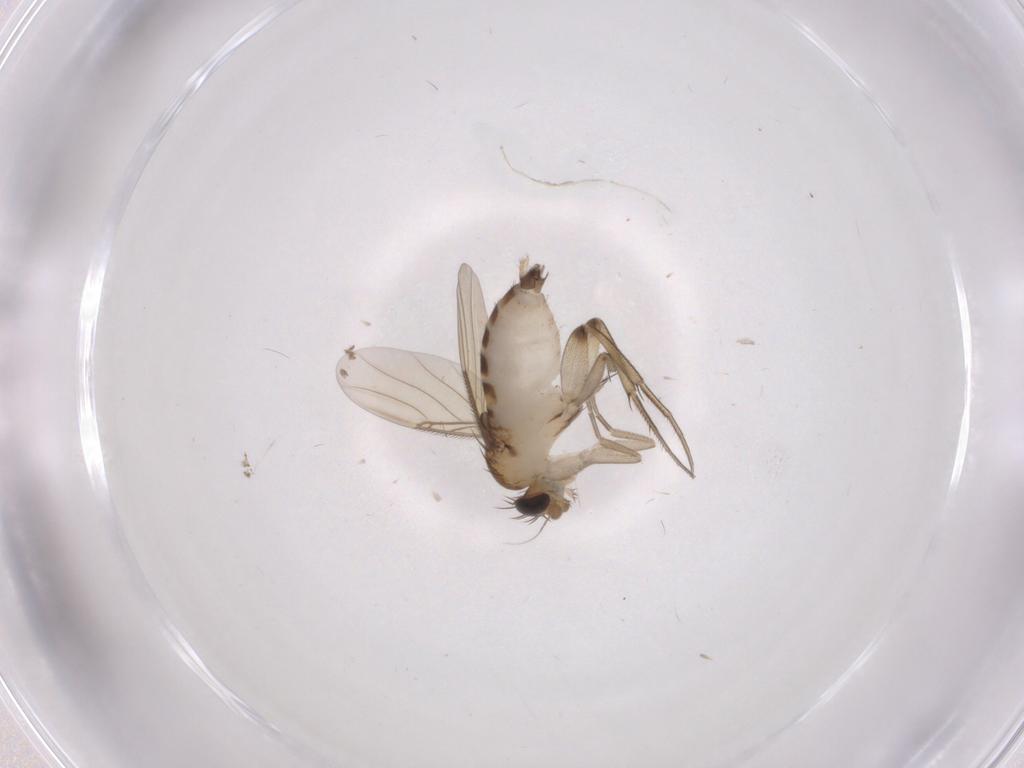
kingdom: Animalia
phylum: Arthropoda
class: Insecta
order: Diptera
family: Phoridae
